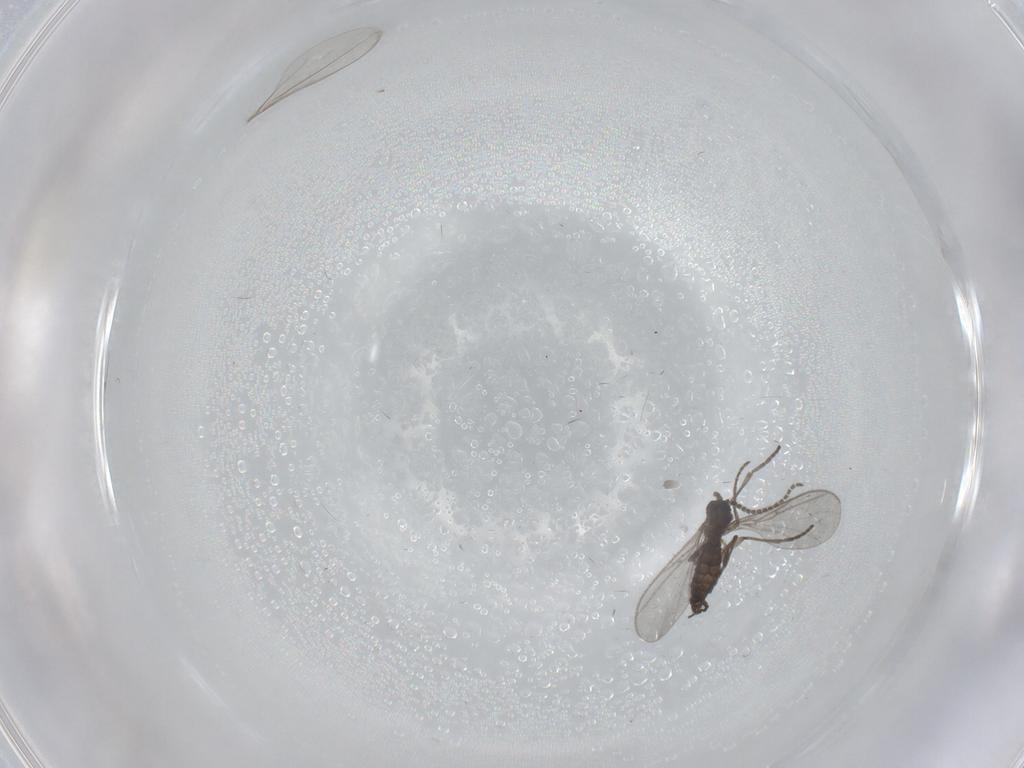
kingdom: Animalia
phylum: Arthropoda
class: Insecta
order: Diptera
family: Cecidomyiidae
